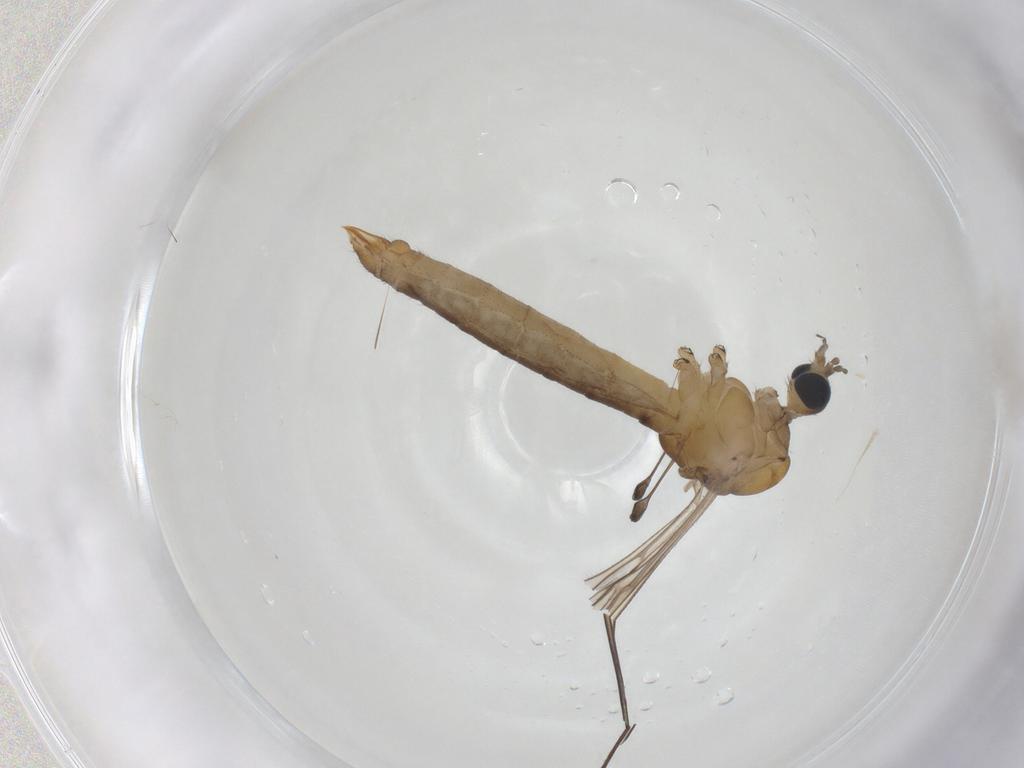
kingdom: Animalia
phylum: Arthropoda
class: Insecta
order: Diptera
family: Limoniidae
